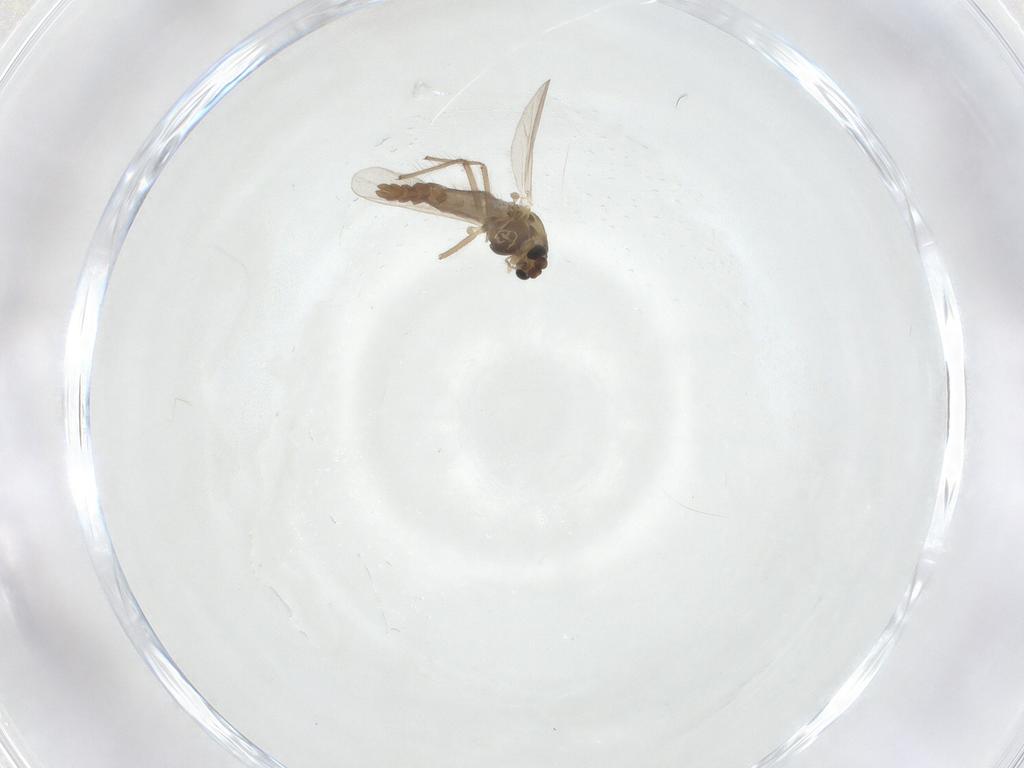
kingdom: Animalia
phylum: Arthropoda
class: Insecta
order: Diptera
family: Chironomidae
